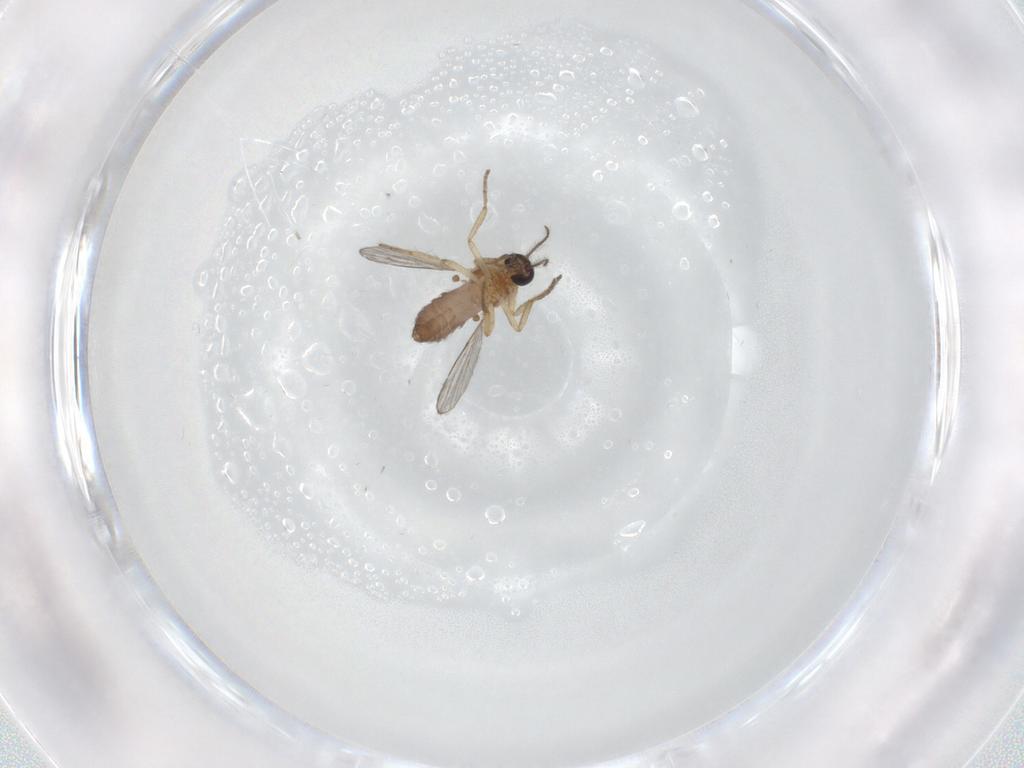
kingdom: Animalia
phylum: Arthropoda
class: Insecta
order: Diptera
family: Ceratopogonidae
